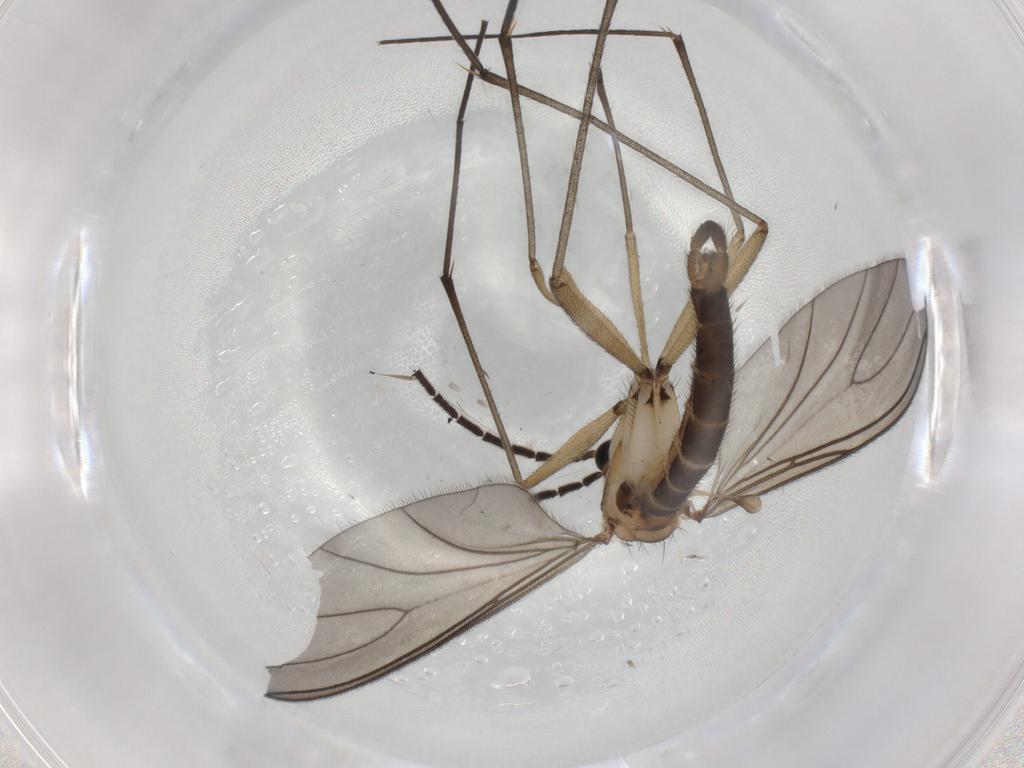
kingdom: Animalia
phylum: Arthropoda
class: Insecta
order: Diptera
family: Sciaridae
